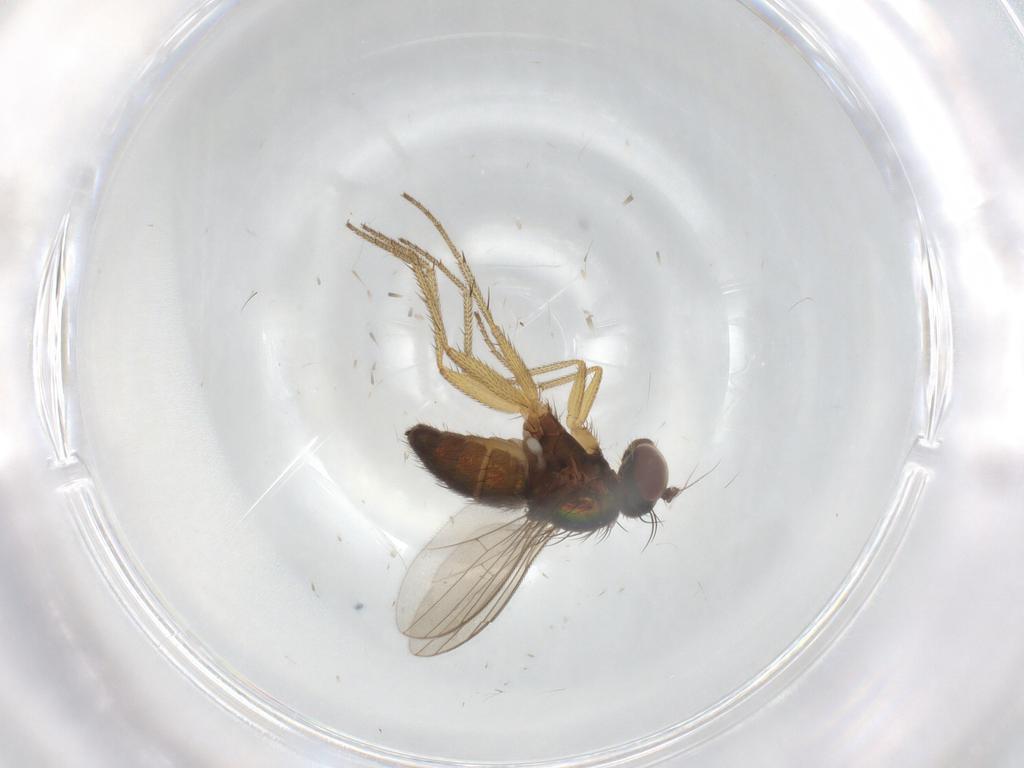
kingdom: Animalia
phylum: Arthropoda
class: Insecta
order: Diptera
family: Dolichopodidae
